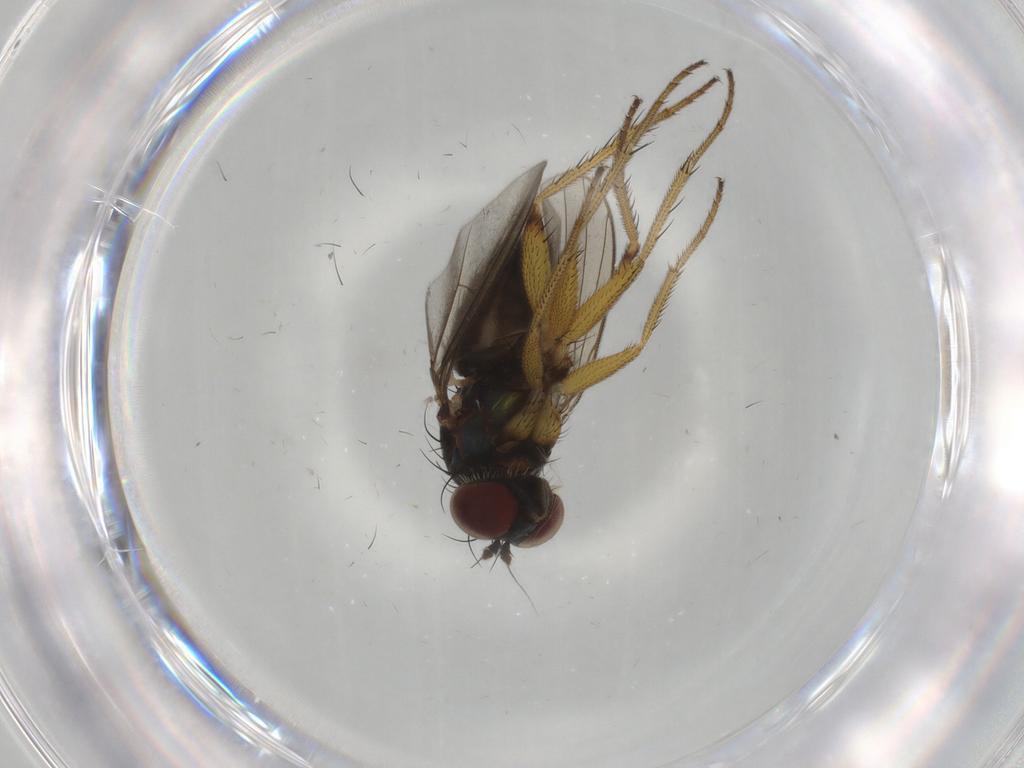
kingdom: Animalia
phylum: Arthropoda
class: Insecta
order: Diptera
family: Dolichopodidae
